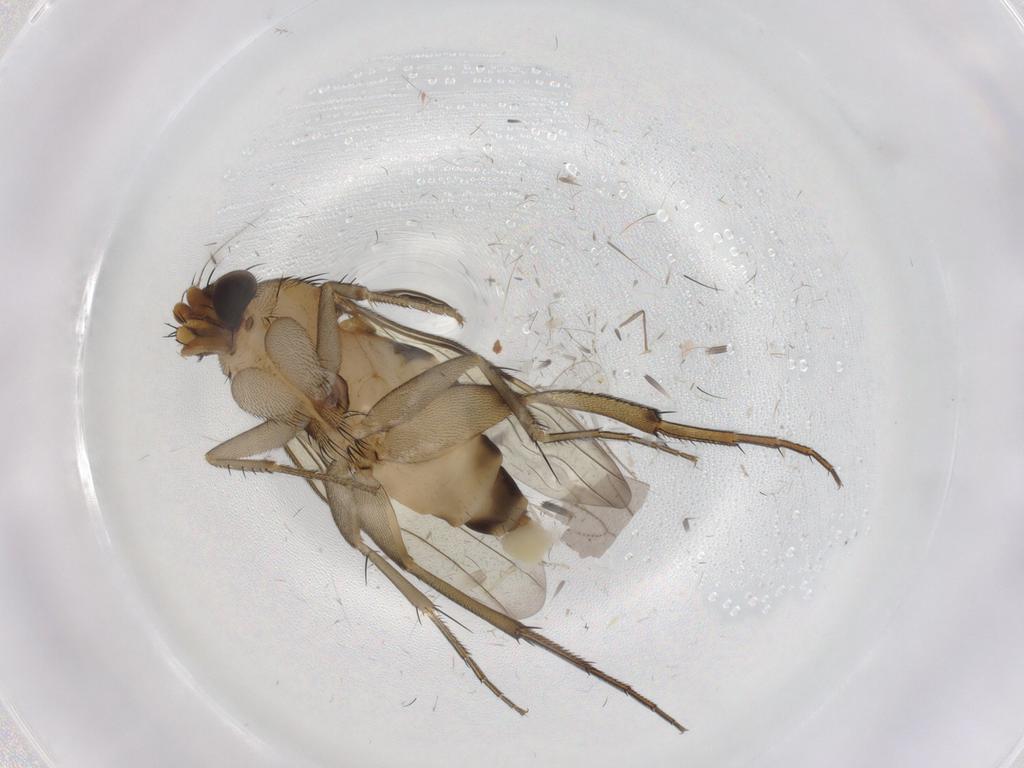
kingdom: Animalia
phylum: Arthropoda
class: Insecta
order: Diptera
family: Phoridae
